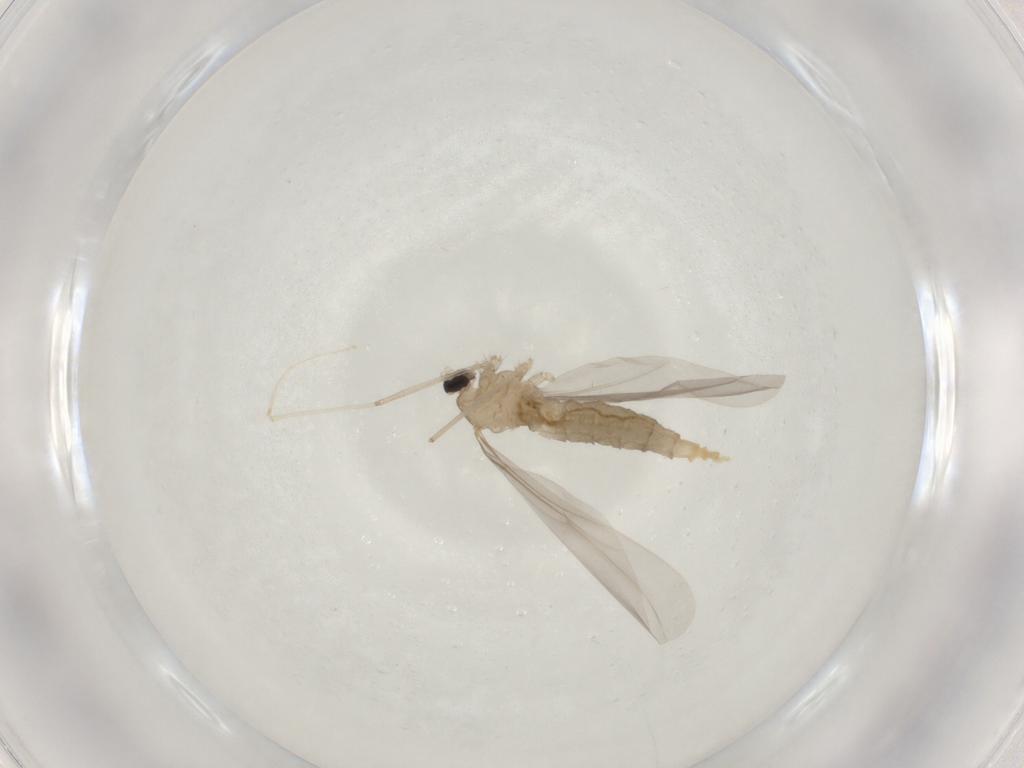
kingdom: Animalia
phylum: Arthropoda
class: Insecta
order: Diptera
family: Cecidomyiidae
